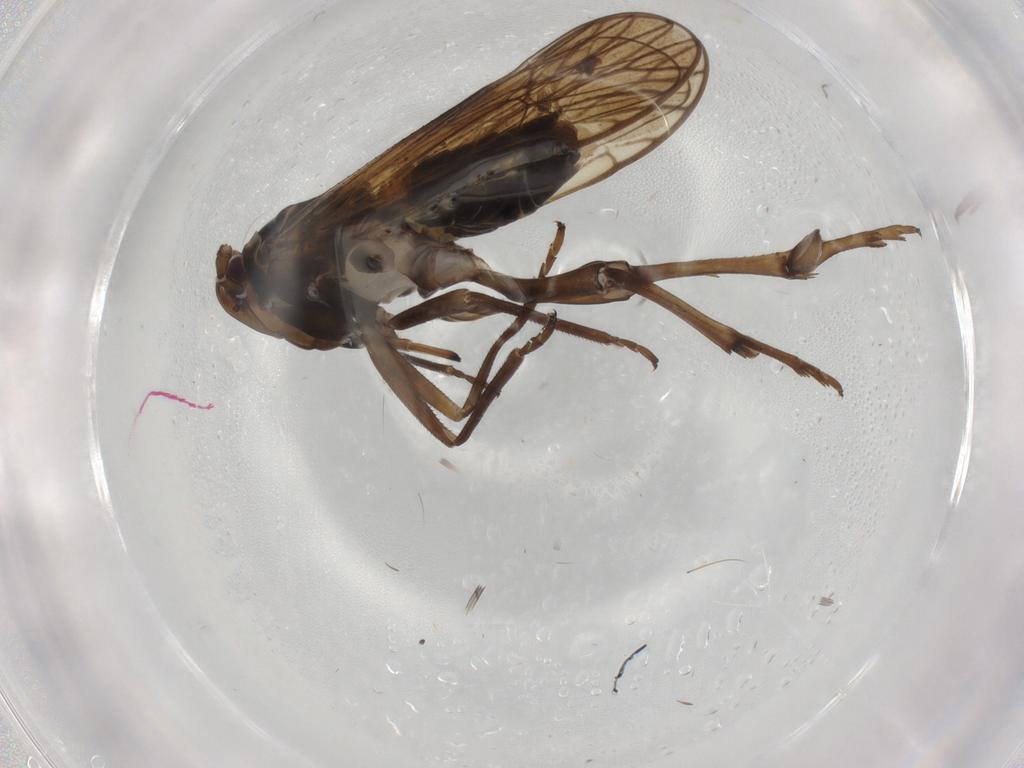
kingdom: Animalia
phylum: Arthropoda
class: Insecta
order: Hemiptera
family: Delphacidae
